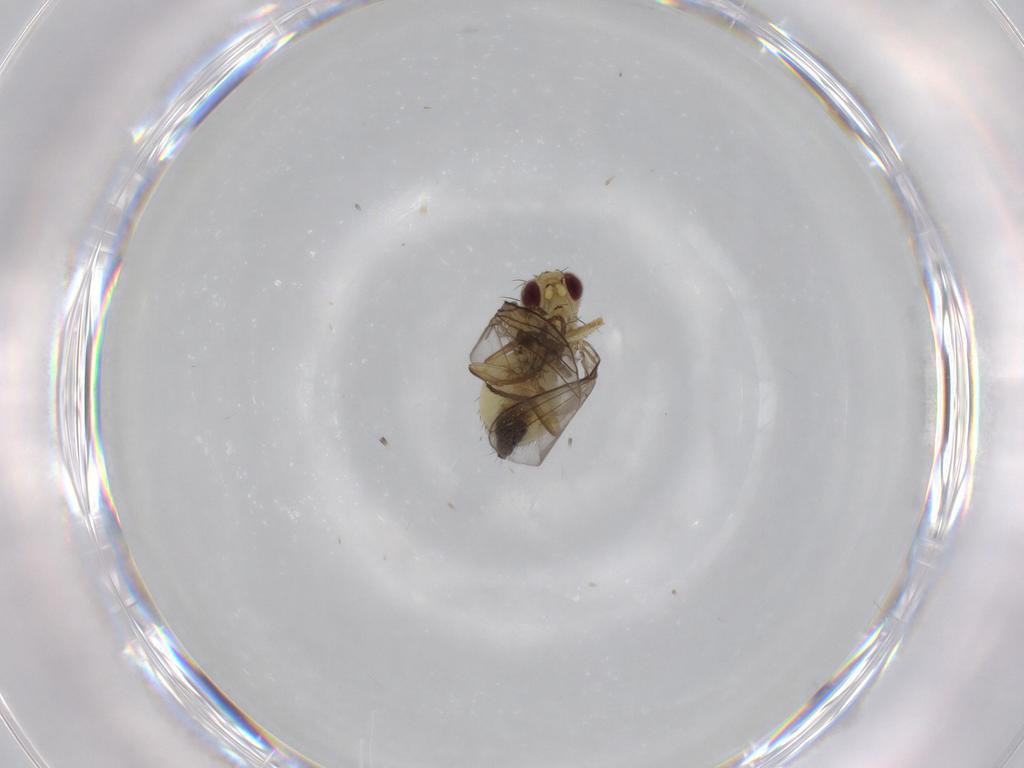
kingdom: Animalia
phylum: Arthropoda
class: Insecta
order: Diptera
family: Agromyzidae
